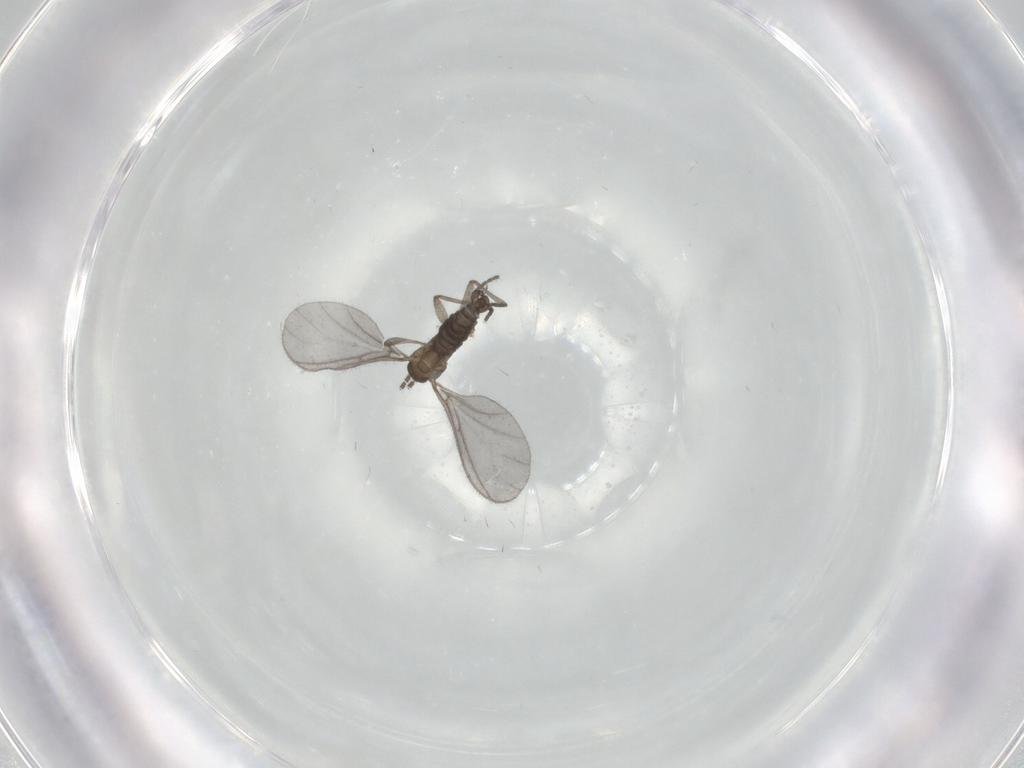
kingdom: Animalia
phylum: Arthropoda
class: Insecta
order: Diptera
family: Sciaridae
